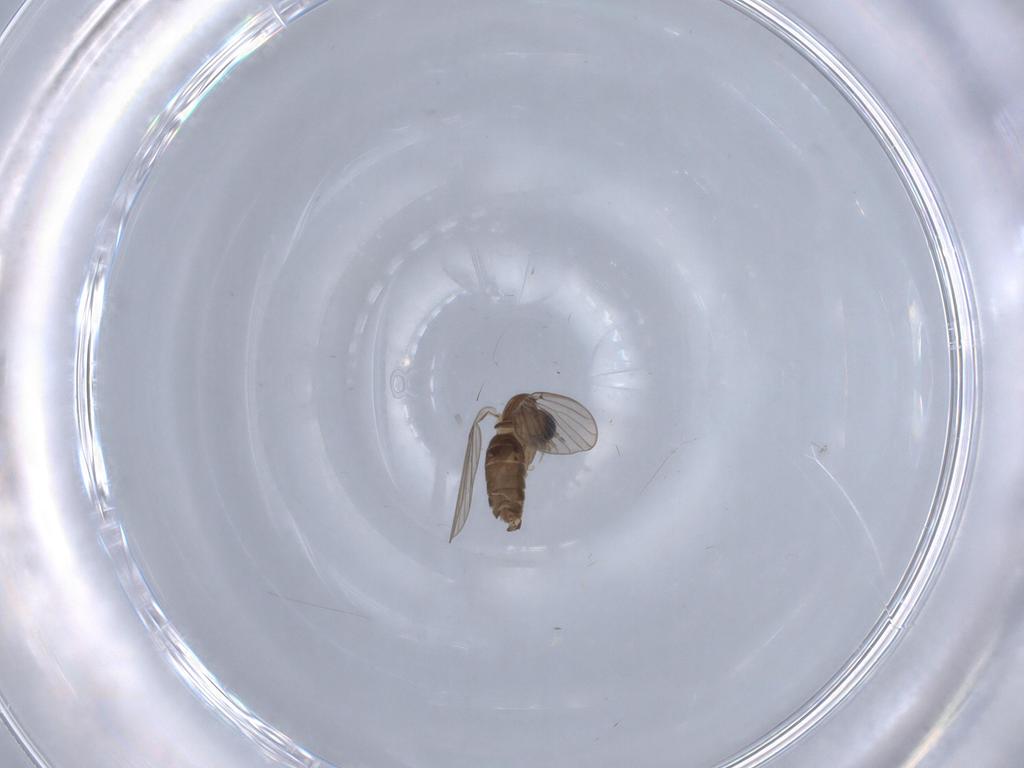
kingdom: Animalia
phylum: Arthropoda
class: Insecta
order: Diptera
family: Psychodidae
